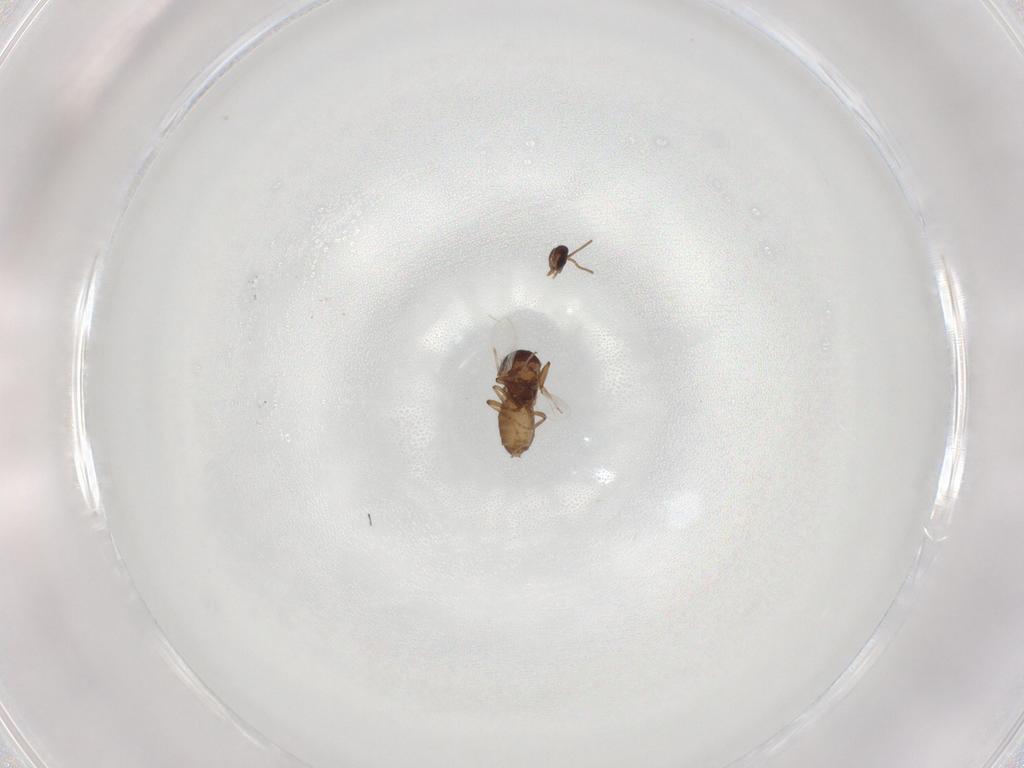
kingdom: Animalia
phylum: Arthropoda
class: Insecta
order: Diptera
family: Ceratopogonidae
